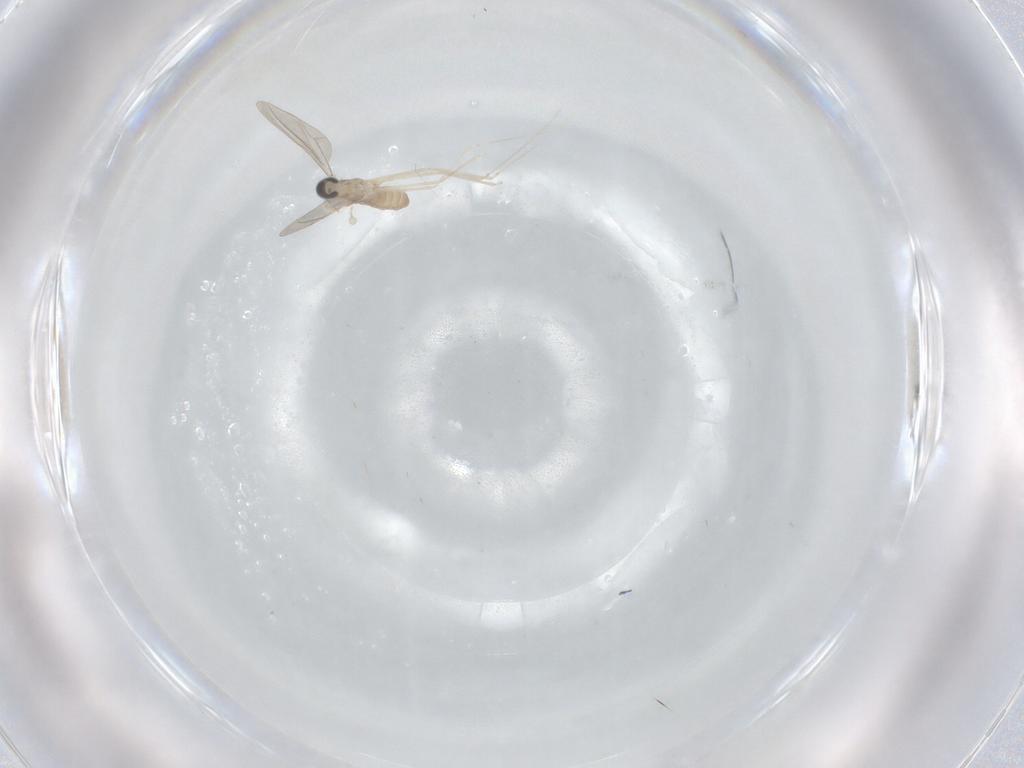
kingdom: Animalia
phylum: Arthropoda
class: Insecta
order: Diptera
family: Cecidomyiidae
